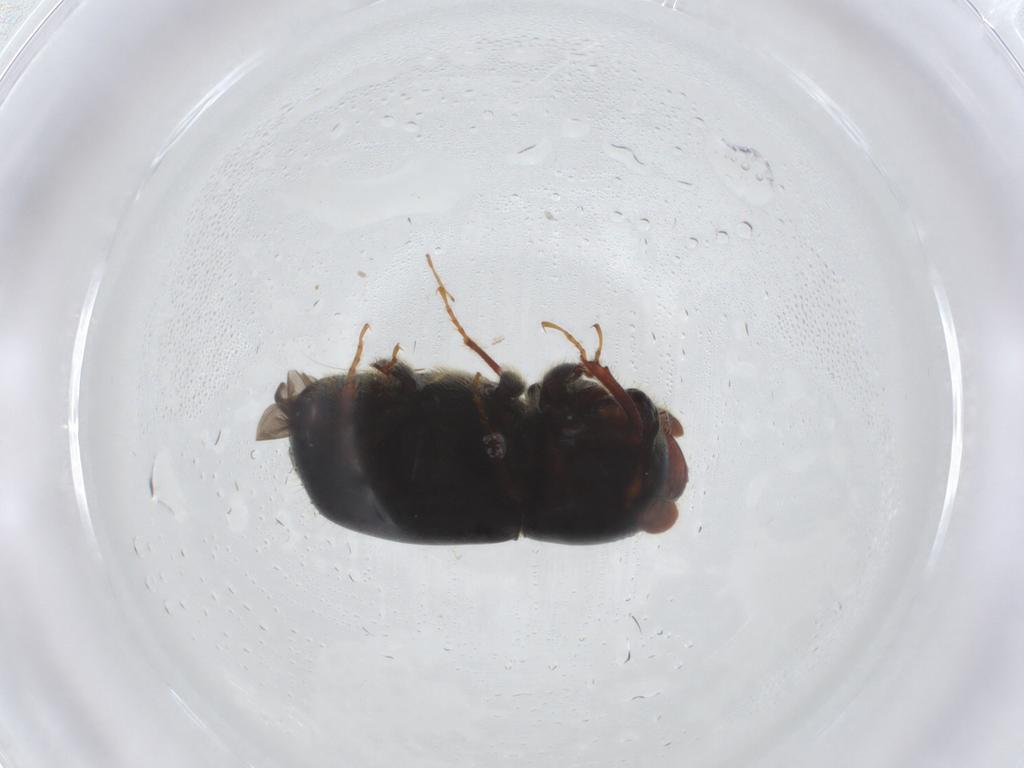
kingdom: Animalia
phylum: Arthropoda
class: Insecta
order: Coleoptera
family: Curculionidae
